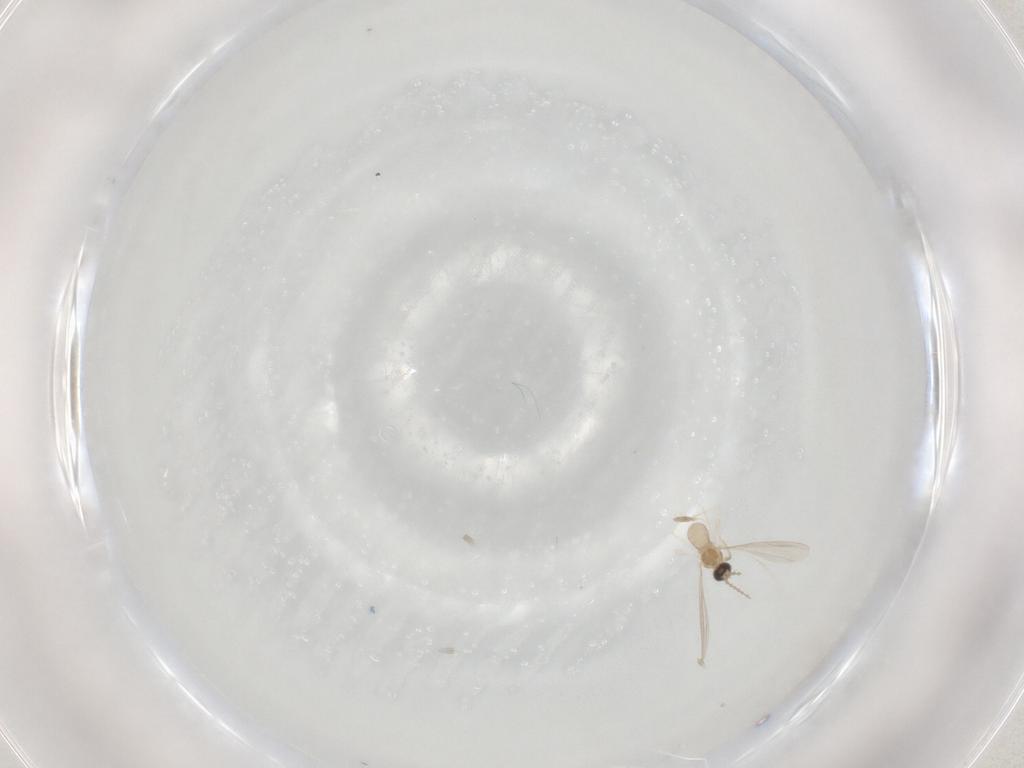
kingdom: Animalia
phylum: Arthropoda
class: Insecta
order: Diptera
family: Cecidomyiidae
